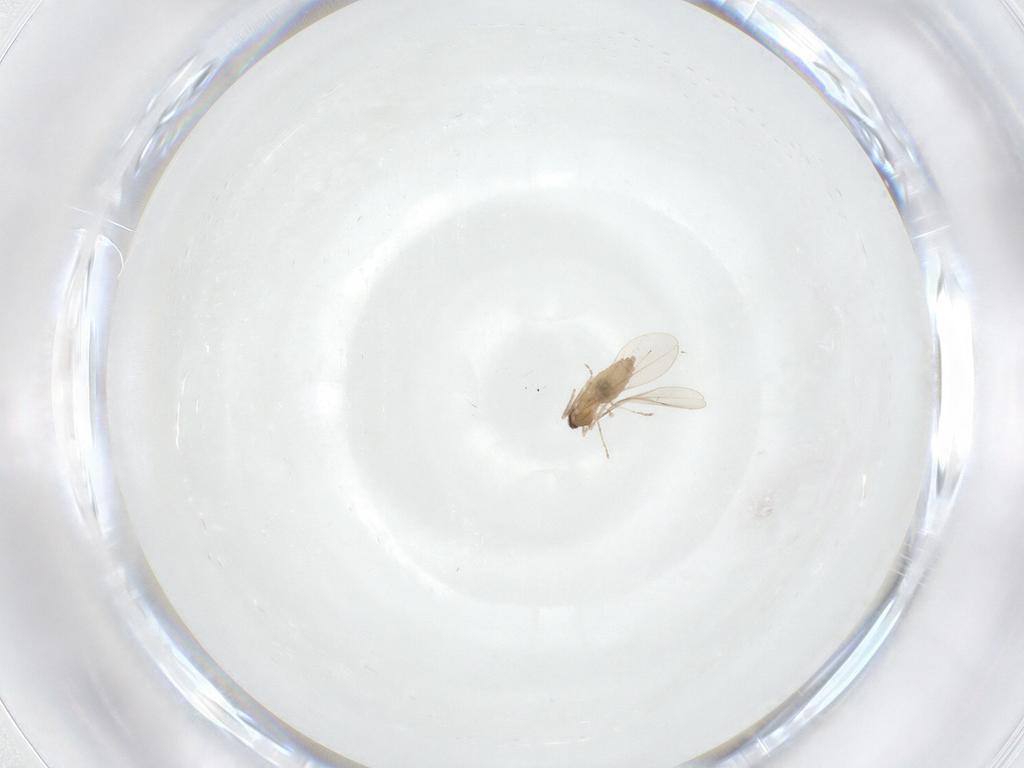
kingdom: Animalia
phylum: Arthropoda
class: Insecta
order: Diptera
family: Cecidomyiidae
